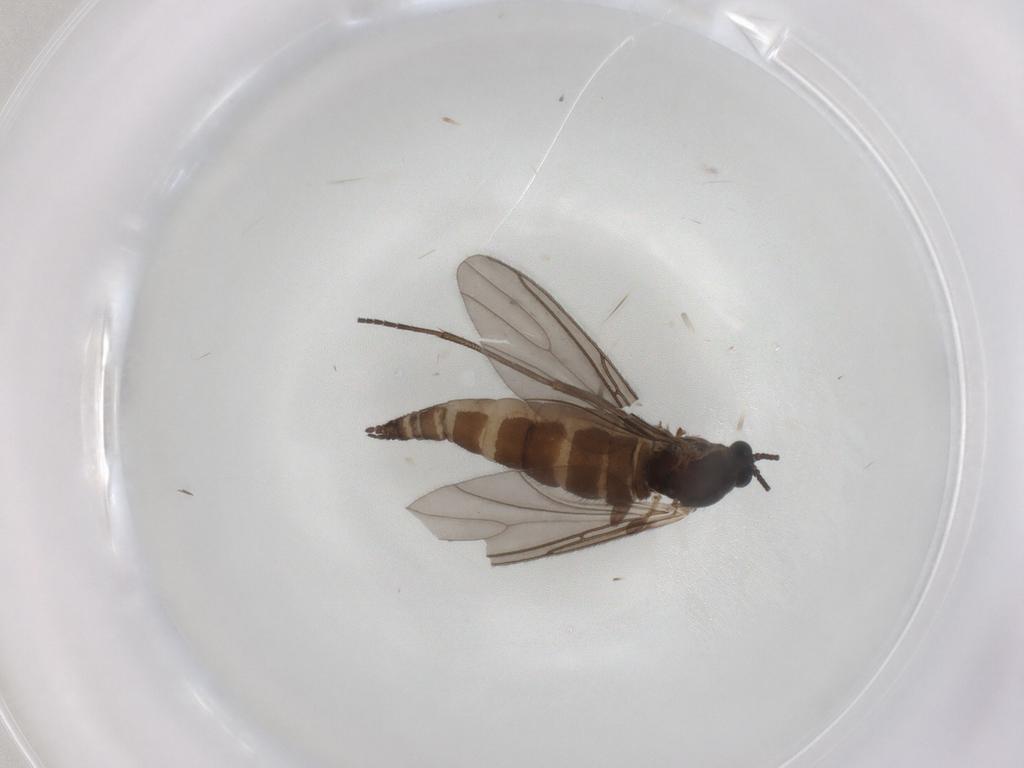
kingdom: Animalia
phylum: Arthropoda
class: Insecta
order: Diptera
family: Sciaridae
